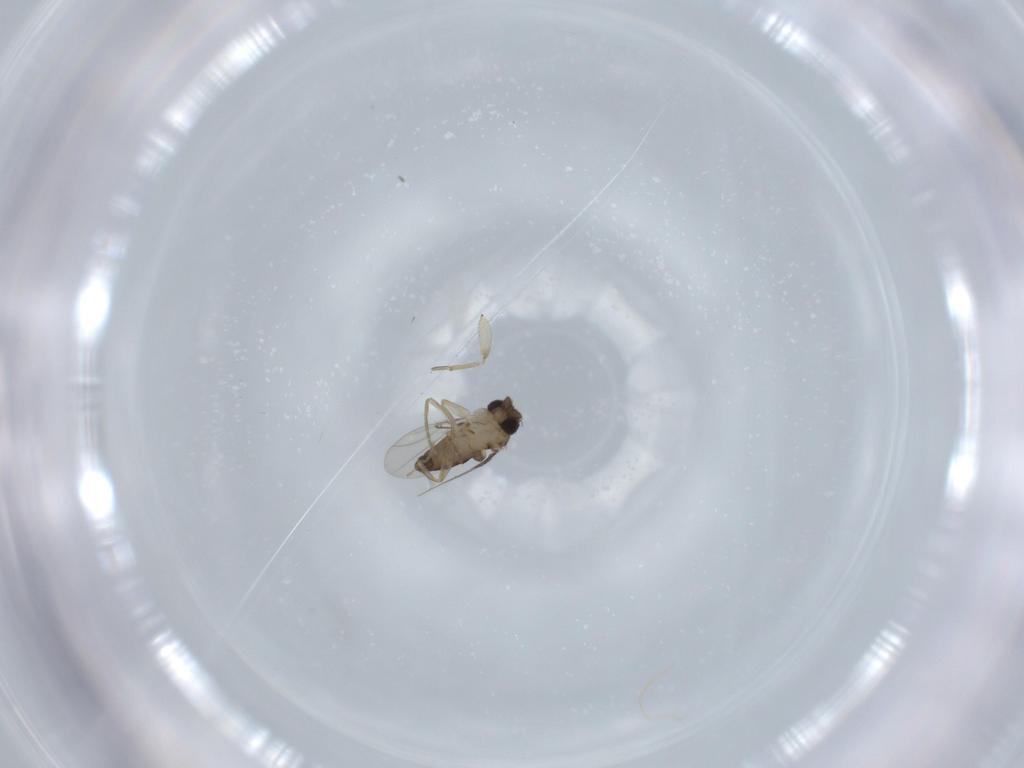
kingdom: Animalia
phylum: Arthropoda
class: Insecta
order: Diptera
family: Phoridae
